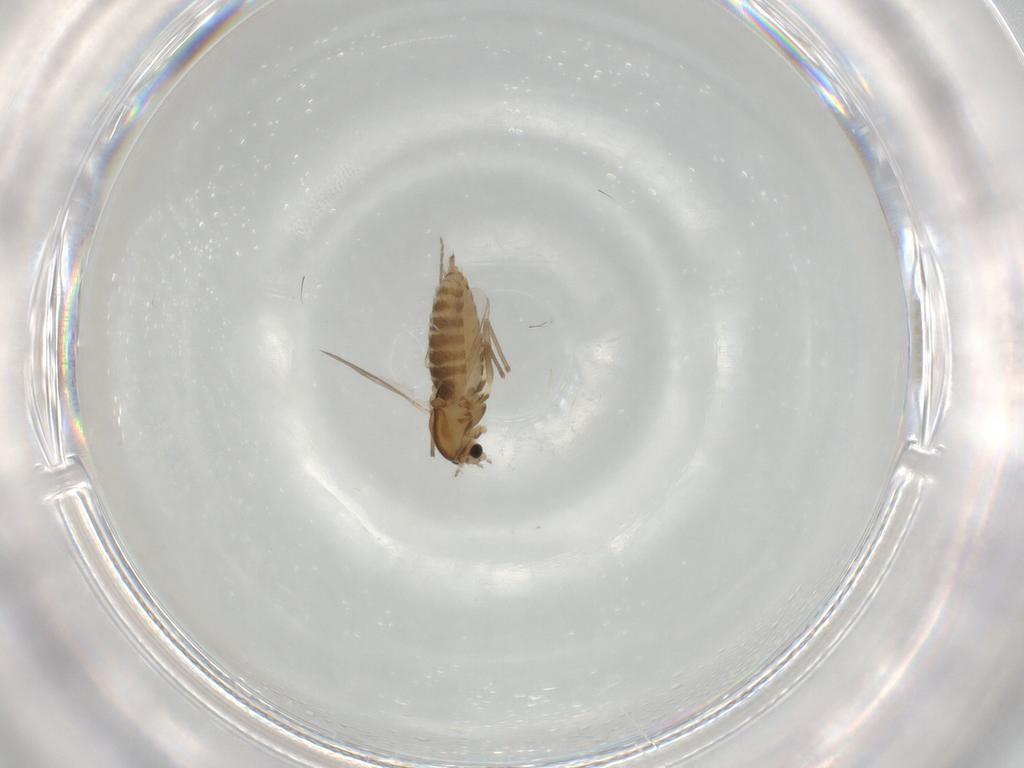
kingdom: Animalia
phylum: Arthropoda
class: Insecta
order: Diptera
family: Chironomidae
